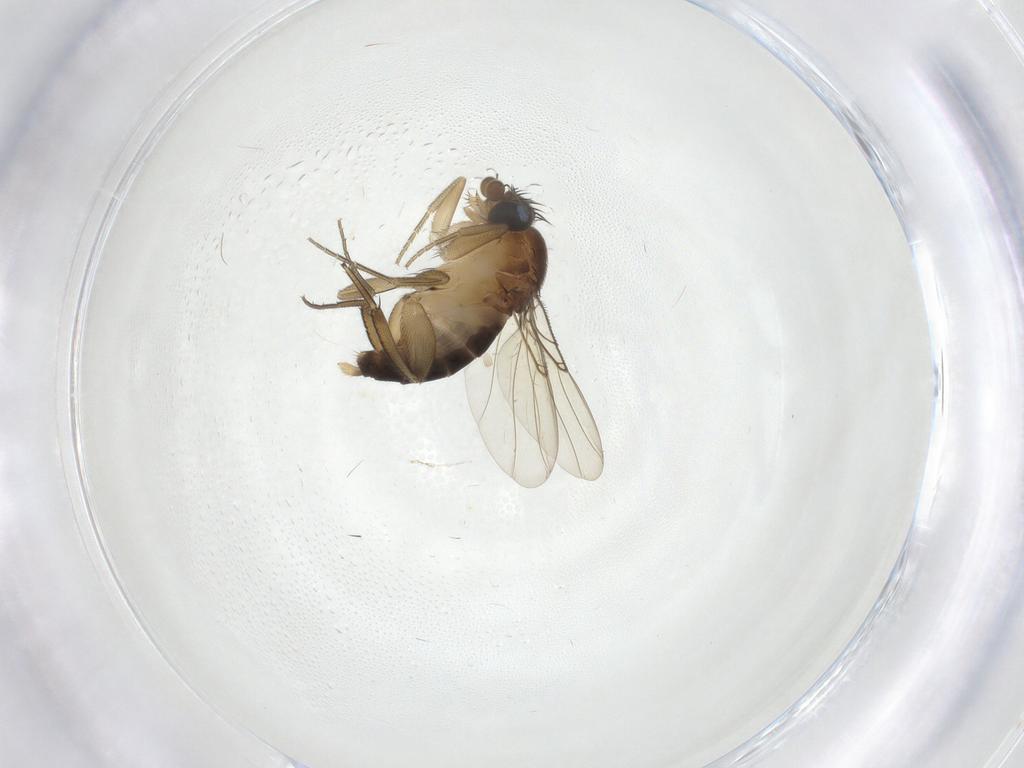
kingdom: Animalia
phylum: Arthropoda
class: Insecta
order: Diptera
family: Phoridae
